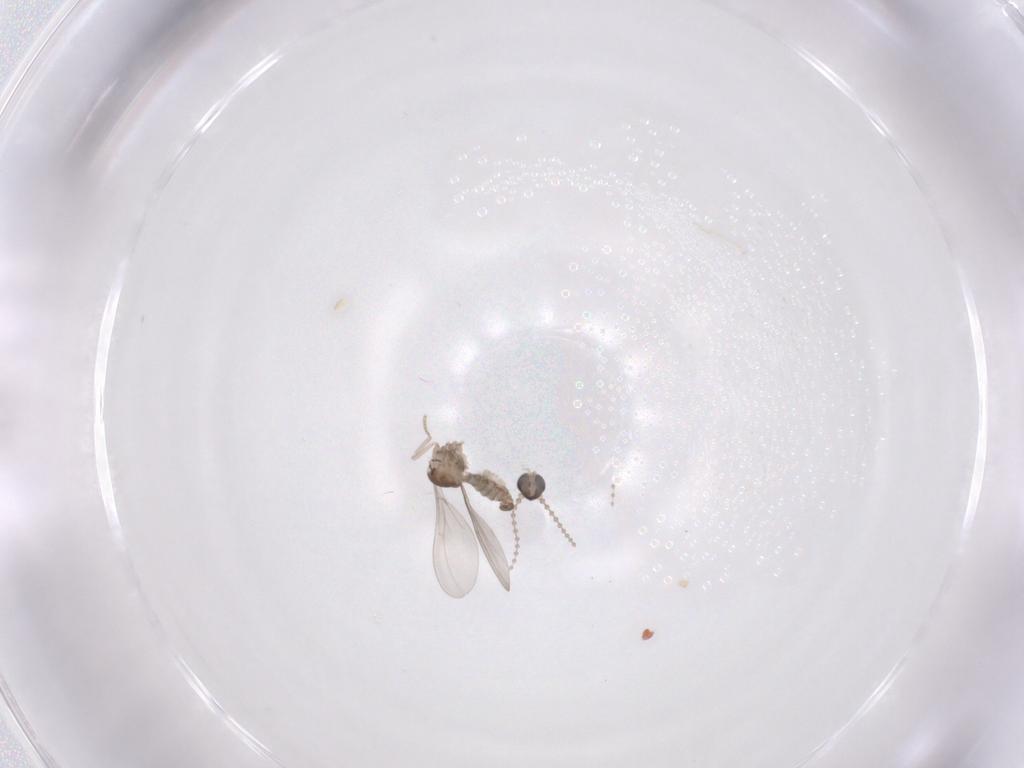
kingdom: Animalia
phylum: Arthropoda
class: Insecta
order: Diptera
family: Cecidomyiidae
